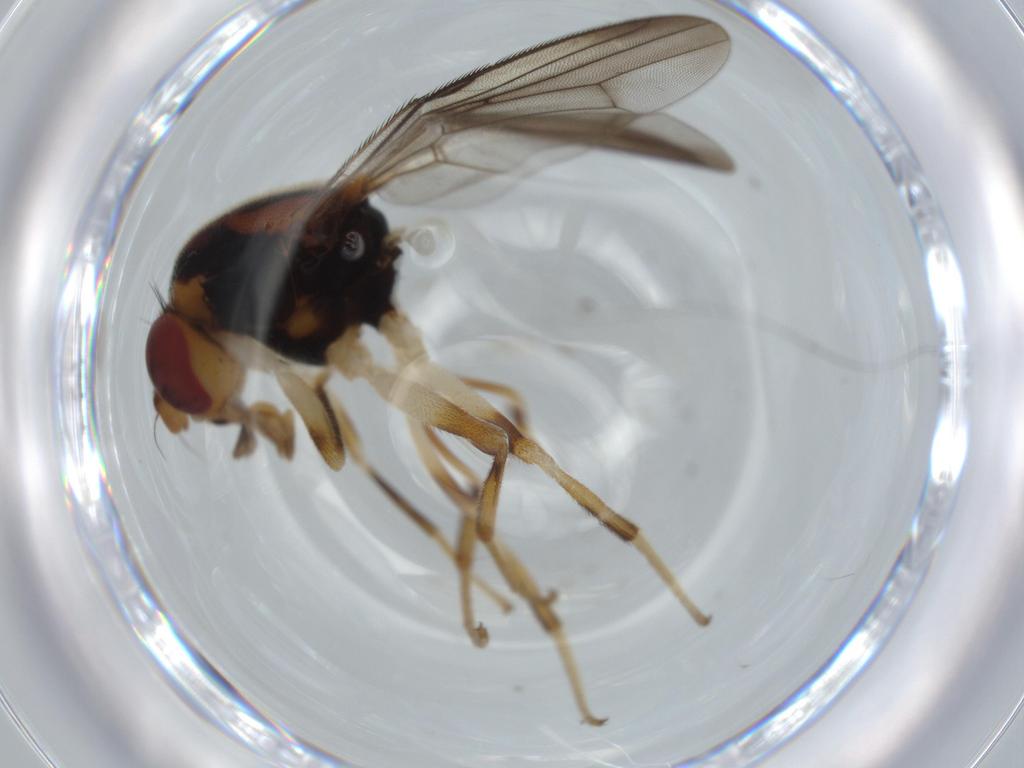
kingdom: Animalia
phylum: Arthropoda
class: Insecta
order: Diptera
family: Psilidae
